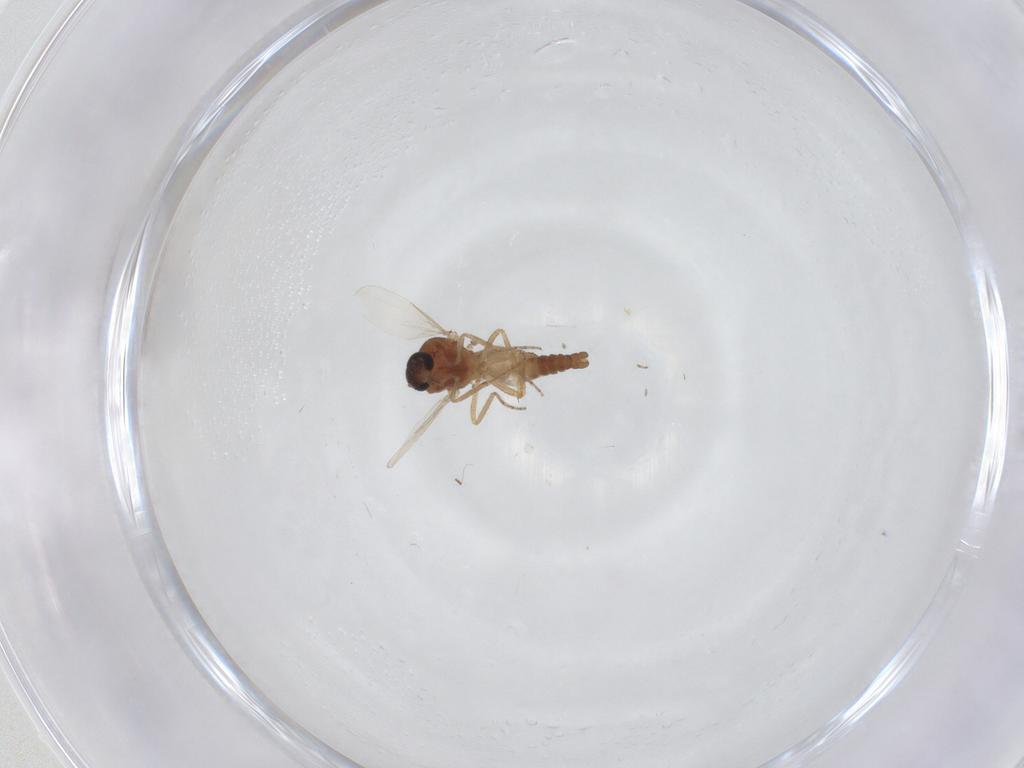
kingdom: Animalia
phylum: Arthropoda
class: Insecta
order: Diptera
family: Ceratopogonidae
